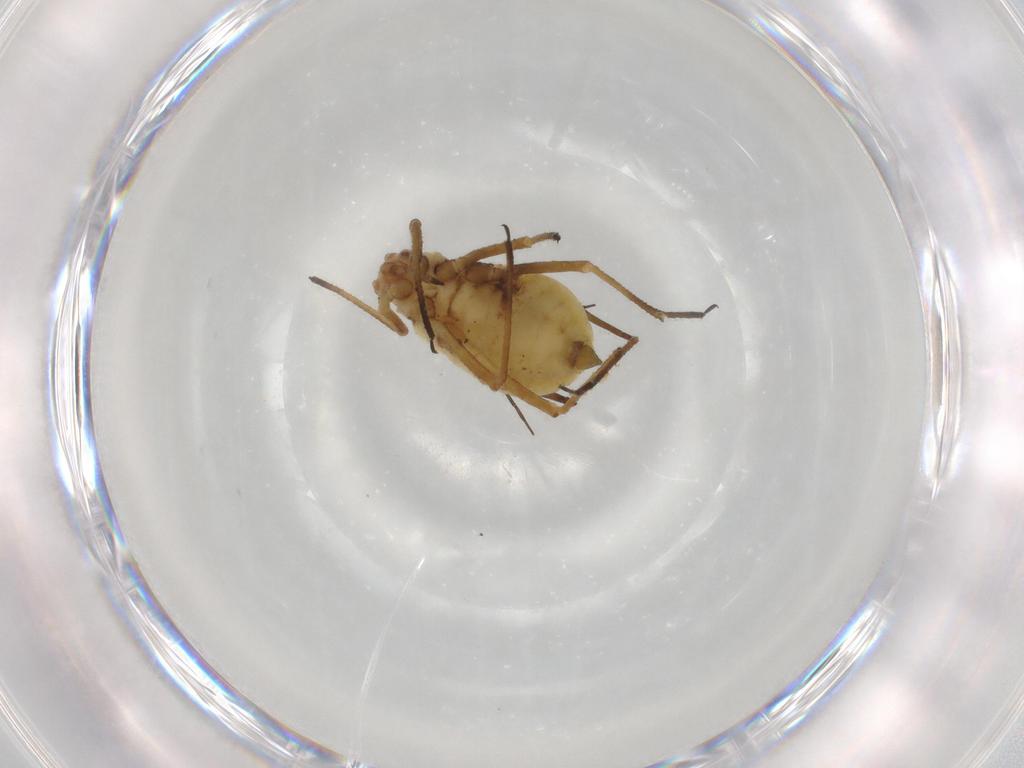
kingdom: Animalia
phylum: Arthropoda
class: Insecta
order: Hemiptera
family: Aphididae
